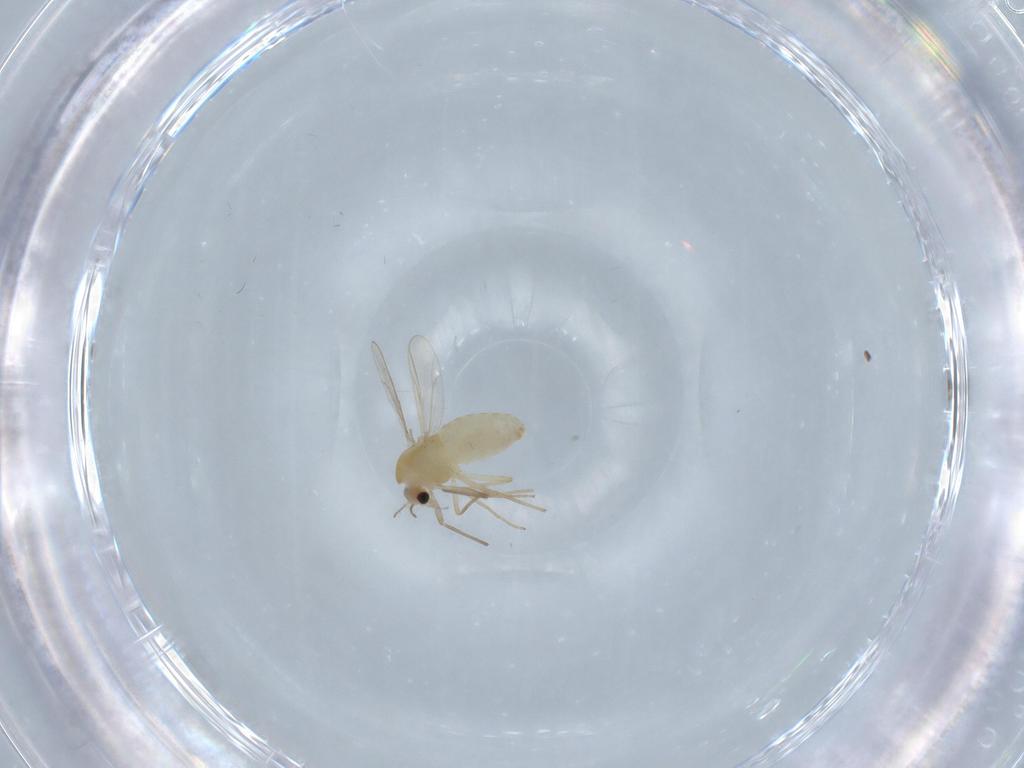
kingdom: Animalia
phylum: Arthropoda
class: Insecta
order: Diptera
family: Chironomidae
